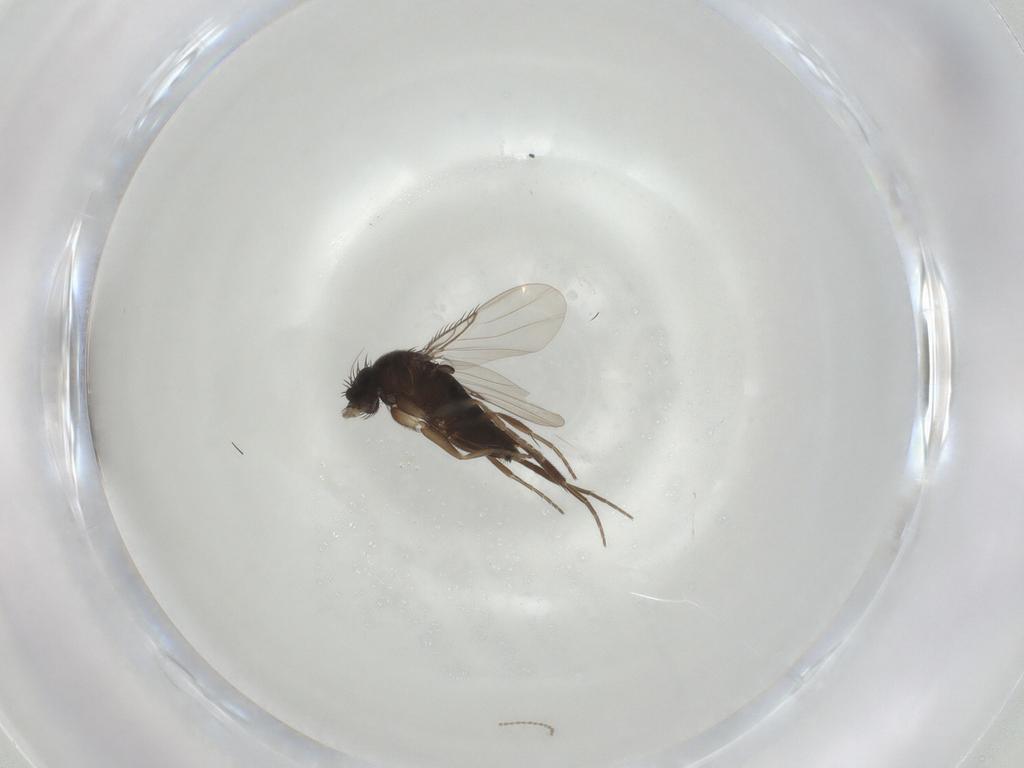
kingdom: Animalia
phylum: Arthropoda
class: Insecta
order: Diptera
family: Phoridae
